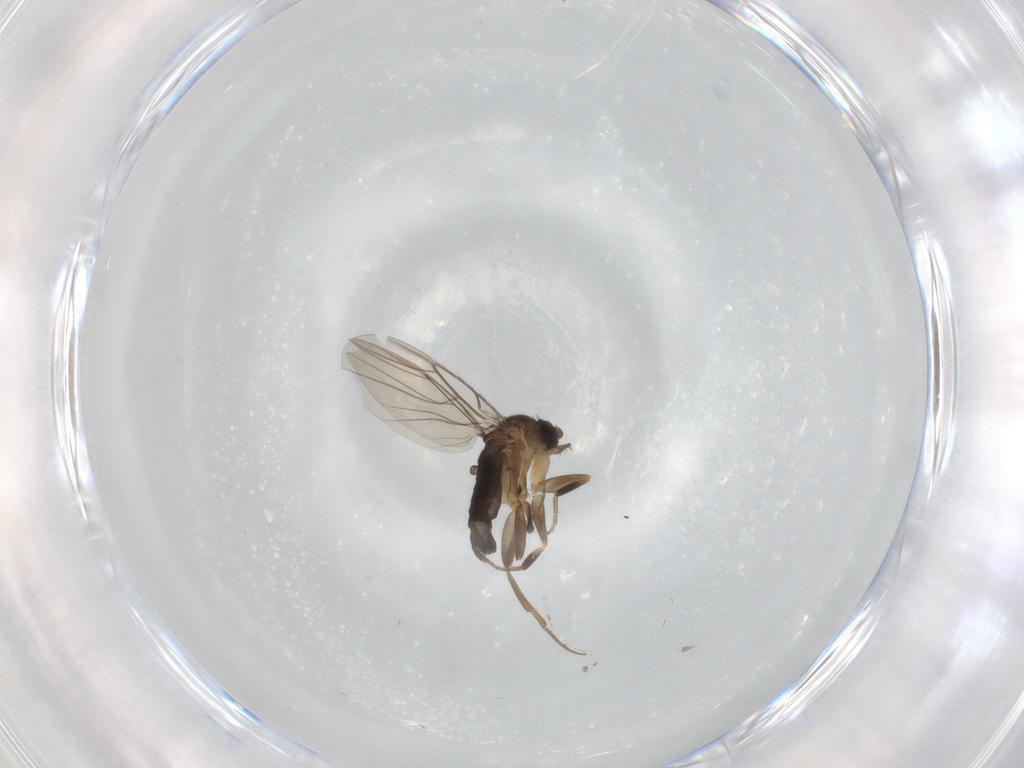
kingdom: Animalia
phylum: Arthropoda
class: Insecta
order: Diptera
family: Phoridae
